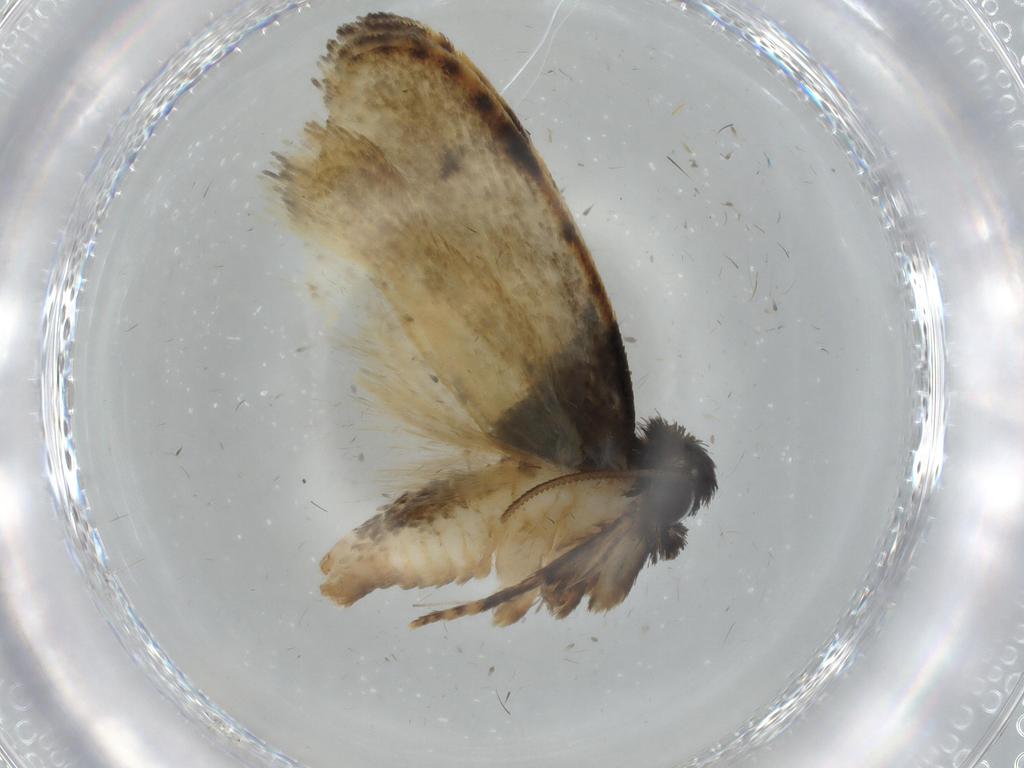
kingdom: Animalia
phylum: Arthropoda
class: Insecta
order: Lepidoptera
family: Psychidae
